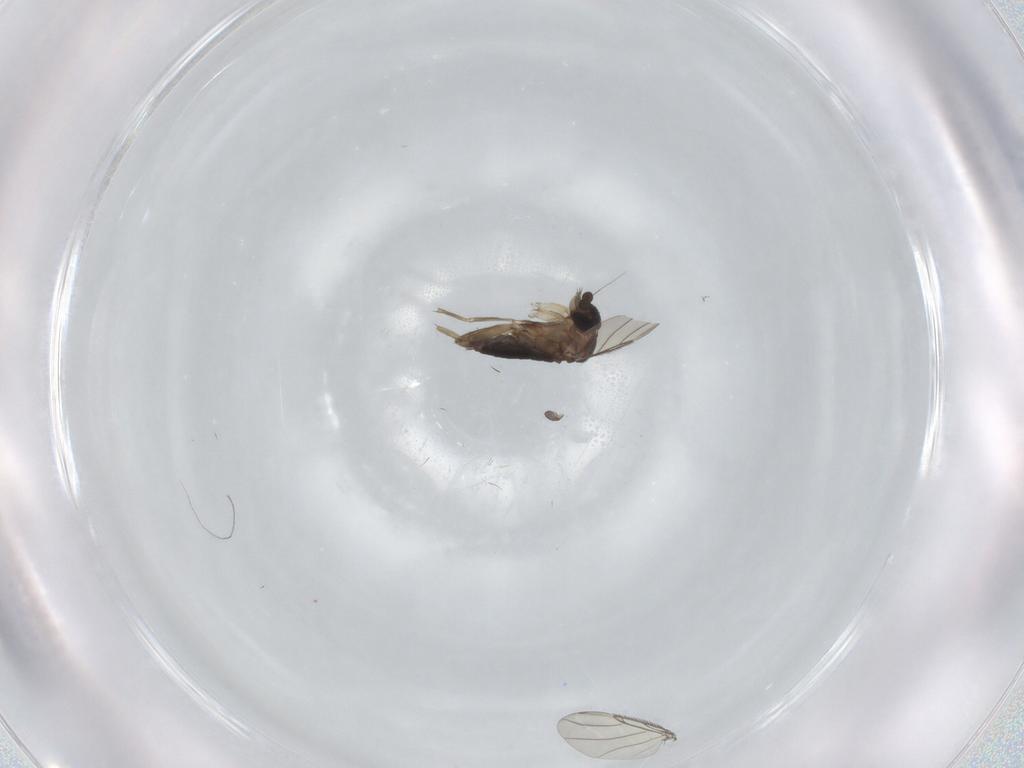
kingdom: Animalia
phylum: Arthropoda
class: Insecta
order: Diptera
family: Phoridae
